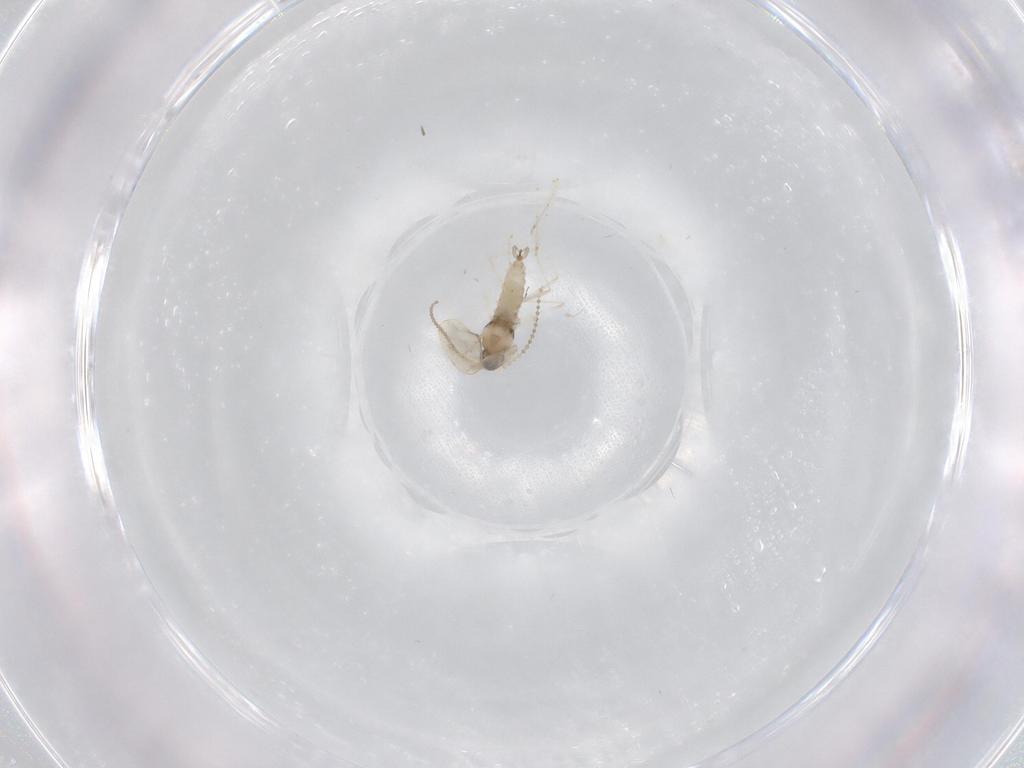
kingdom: Animalia
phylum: Arthropoda
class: Insecta
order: Diptera
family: Cecidomyiidae
